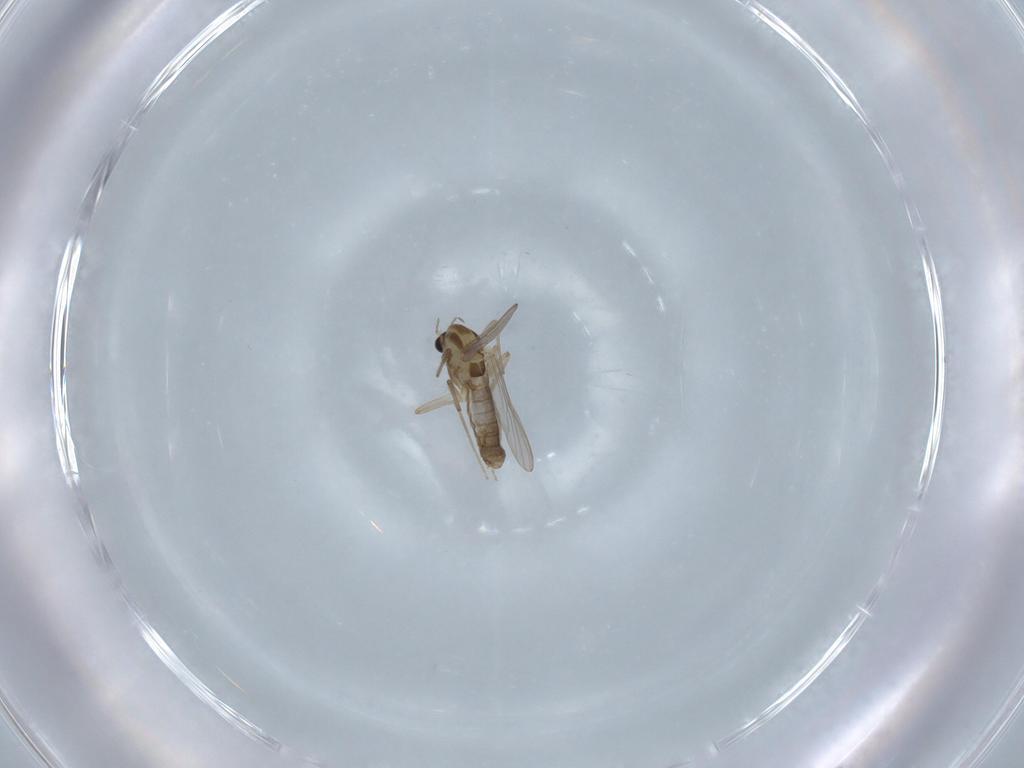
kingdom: Animalia
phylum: Arthropoda
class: Insecta
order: Diptera
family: Chironomidae
